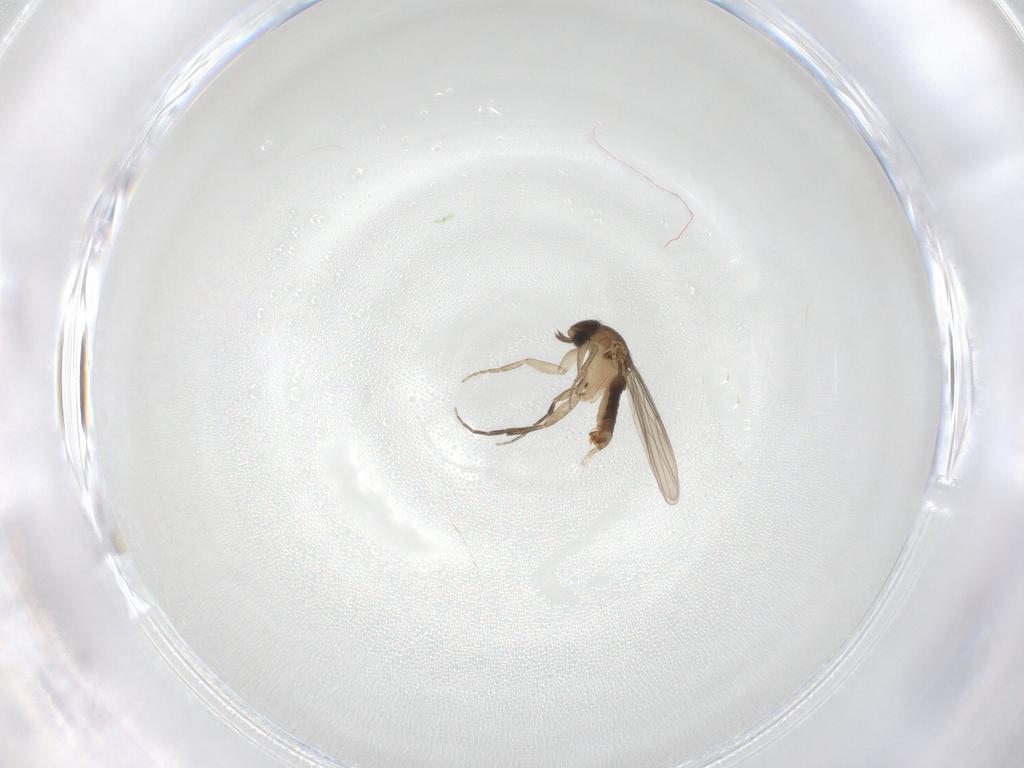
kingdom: Animalia
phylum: Arthropoda
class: Insecta
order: Diptera
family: Phoridae
